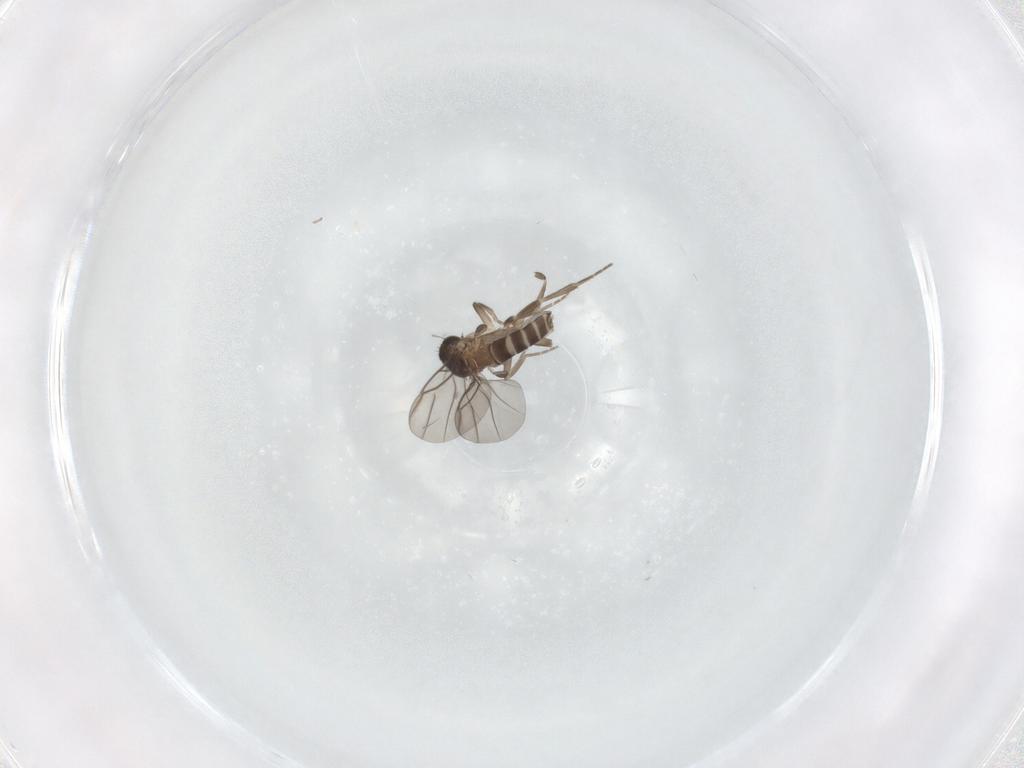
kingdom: Animalia
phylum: Arthropoda
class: Insecta
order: Diptera
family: Phoridae
